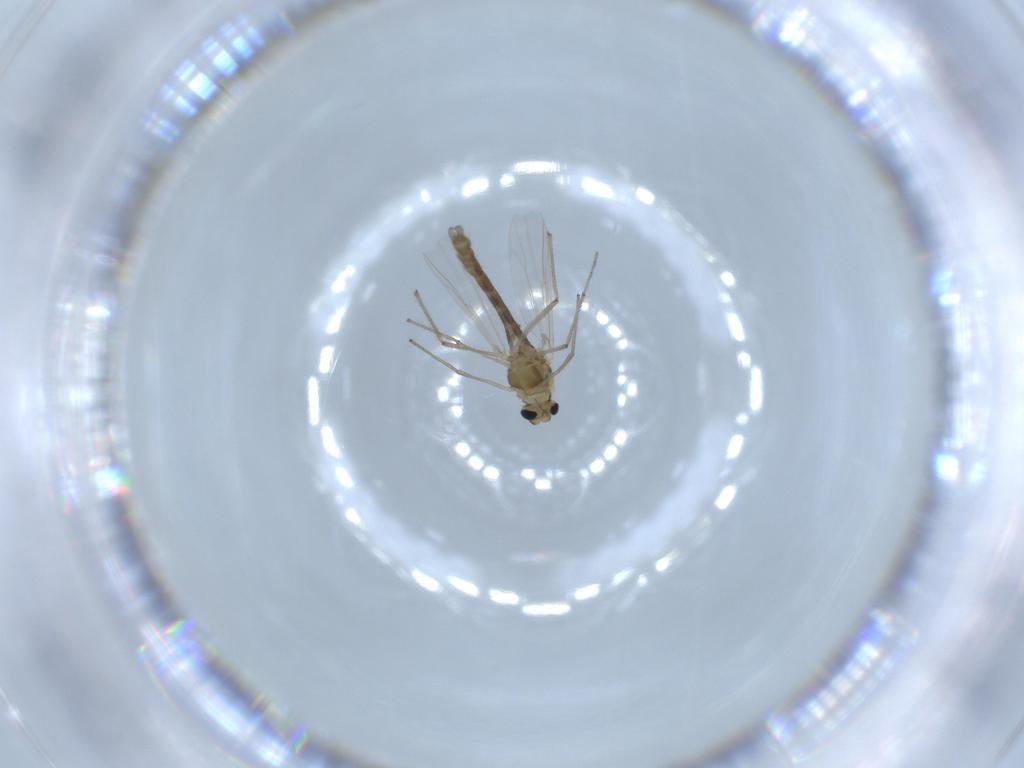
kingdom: Animalia
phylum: Arthropoda
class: Insecta
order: Diptera
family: Chironomidae
